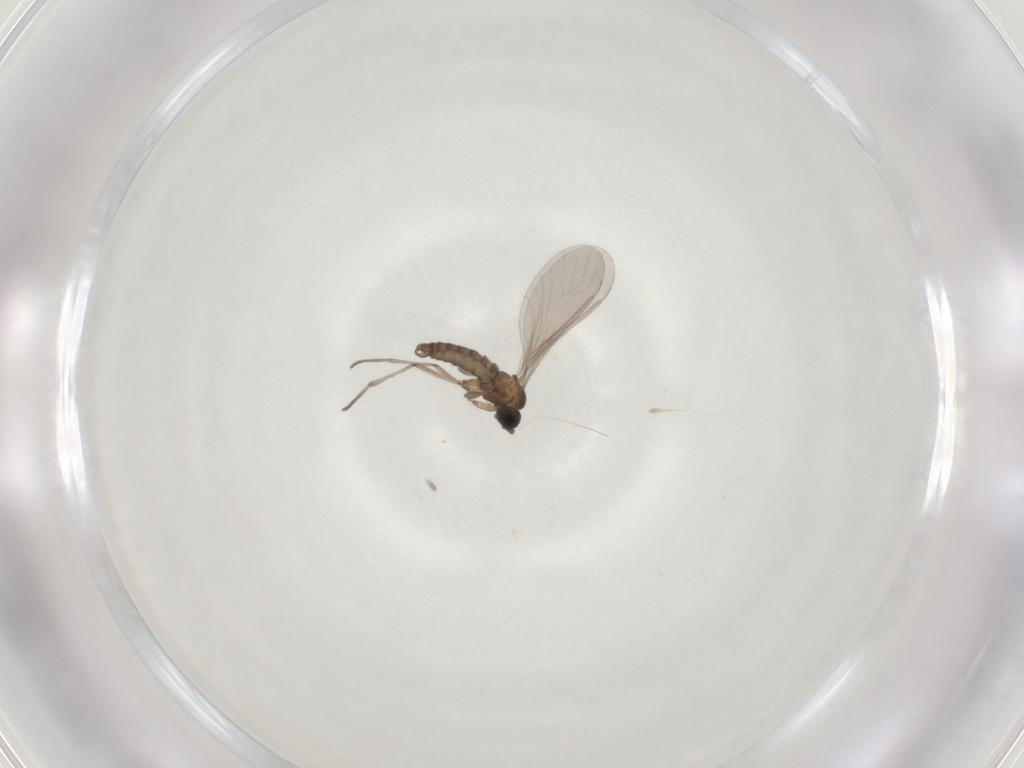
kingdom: Animalia
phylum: Arthropoda
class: Insecta
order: Diptera
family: Sciaridae
